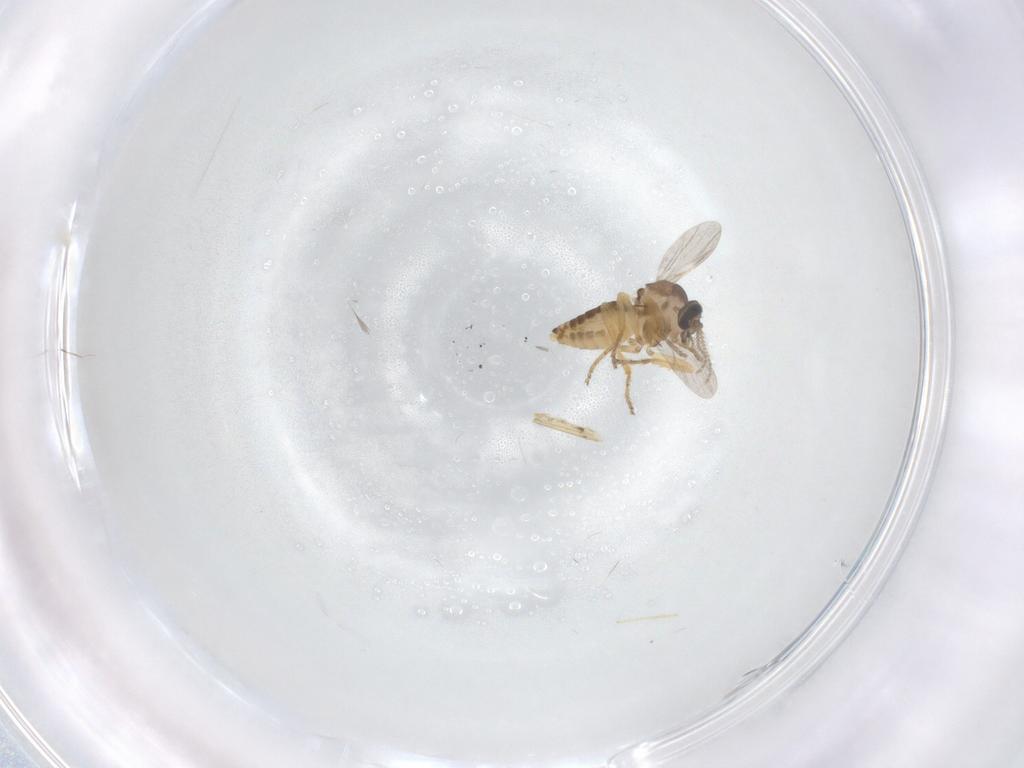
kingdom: Animalia
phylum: Arthropoda
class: Insecta
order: Diptera
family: Ceratopogonidae
